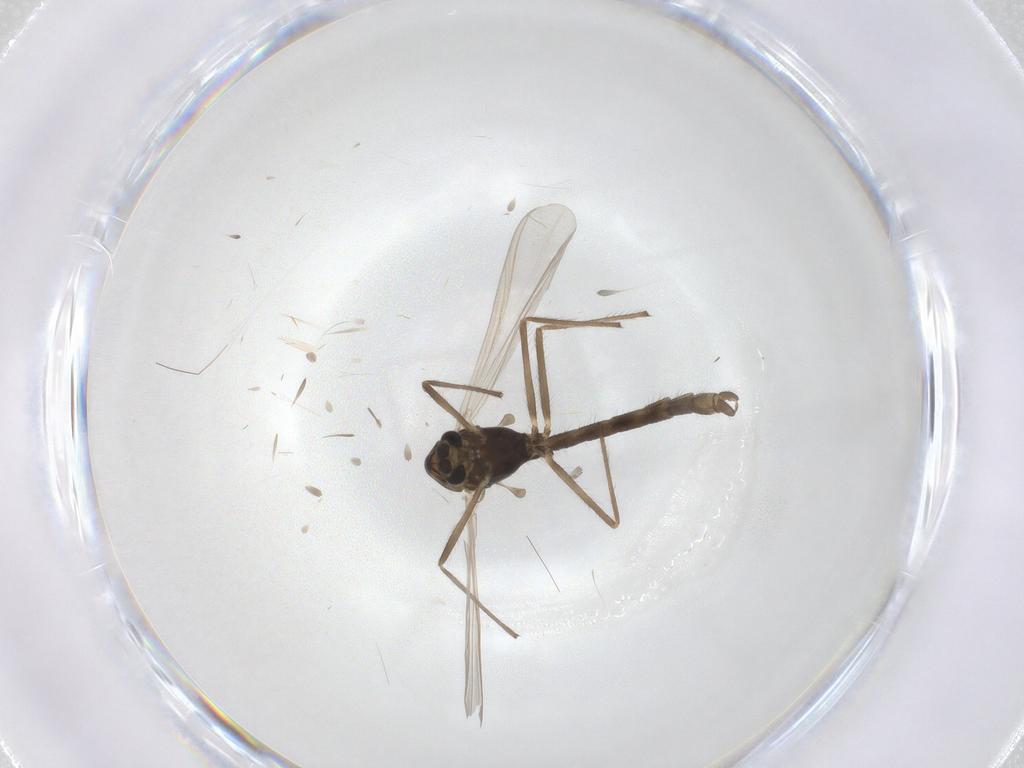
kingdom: Animalia
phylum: Arthropoda
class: Insecta
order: Diptera
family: Chironomidae
